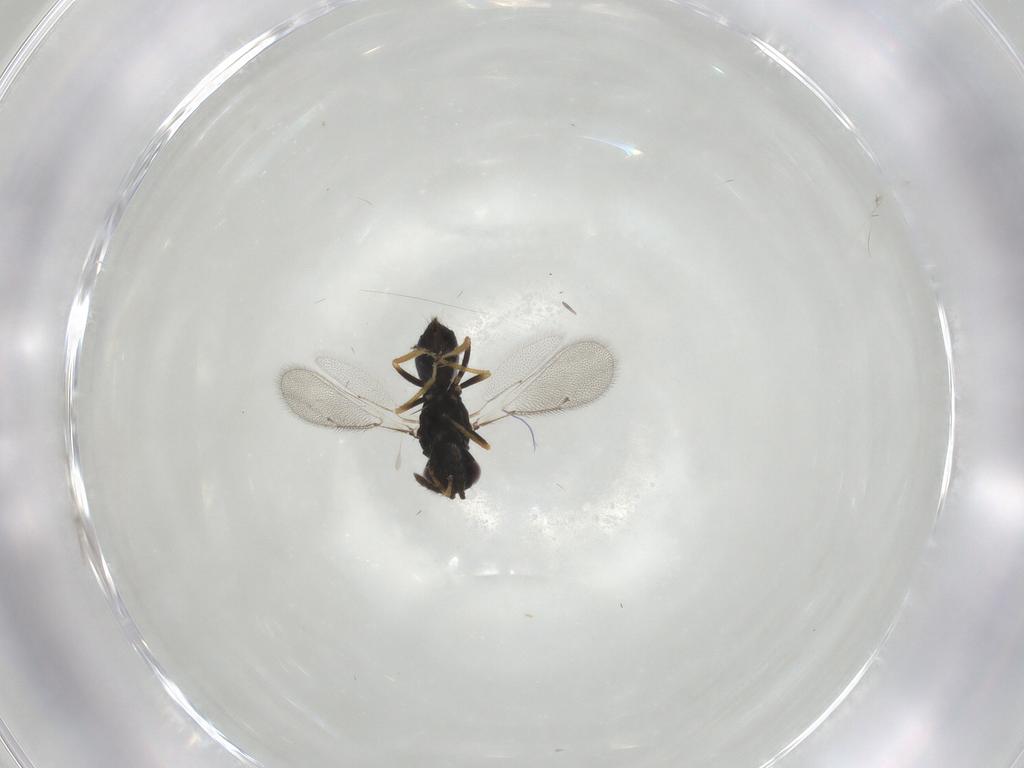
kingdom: Animalia
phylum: Arthropoda
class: Insecta
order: Hymenoptera
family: Eulophidae
